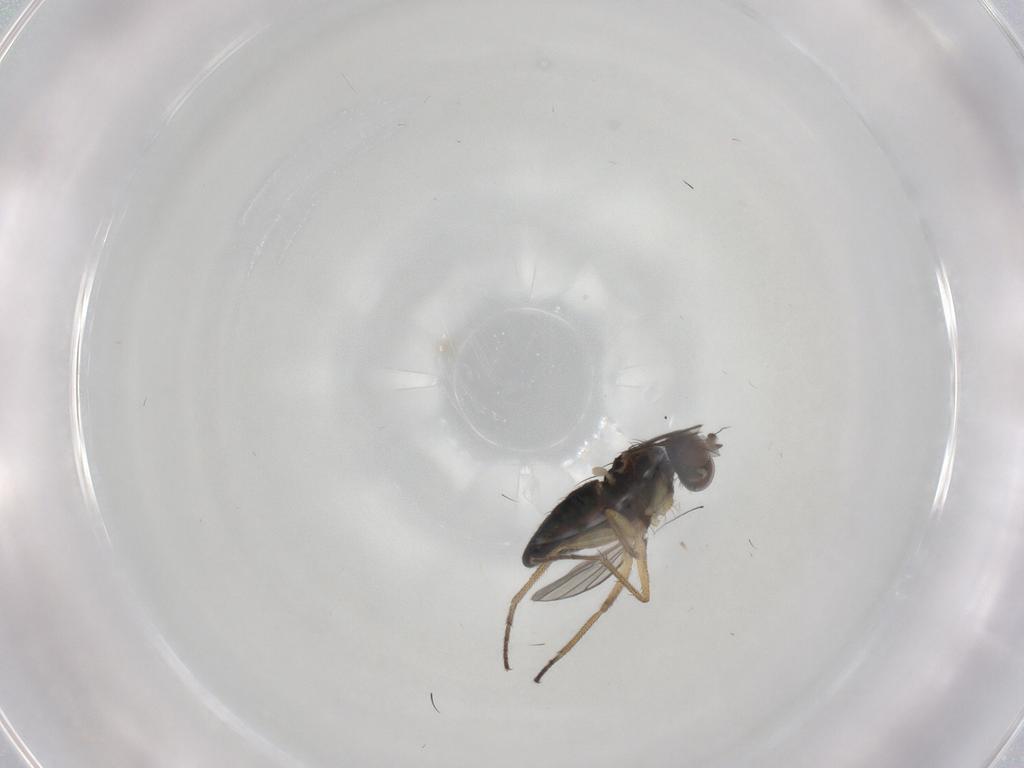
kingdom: Animalia
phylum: Arthropoda
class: Insecta
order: Diptera
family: Dolichopodidae
